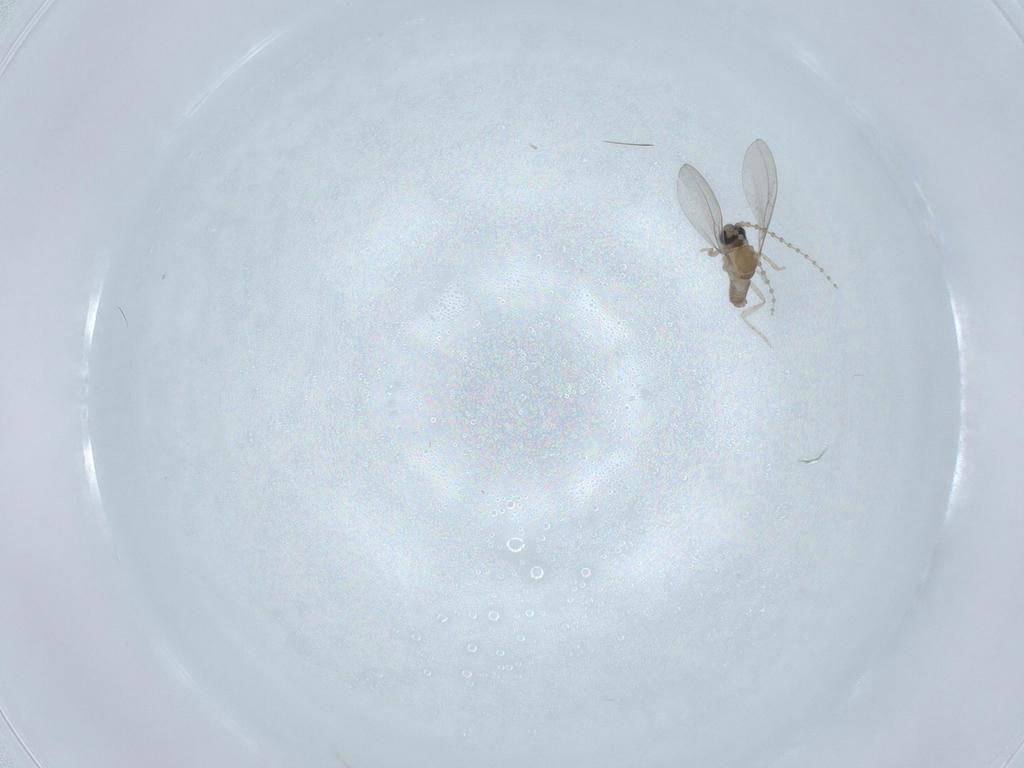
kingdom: Animalia
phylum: Arthropoda
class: Insecta
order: Diptera
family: Cecidomyiidae
